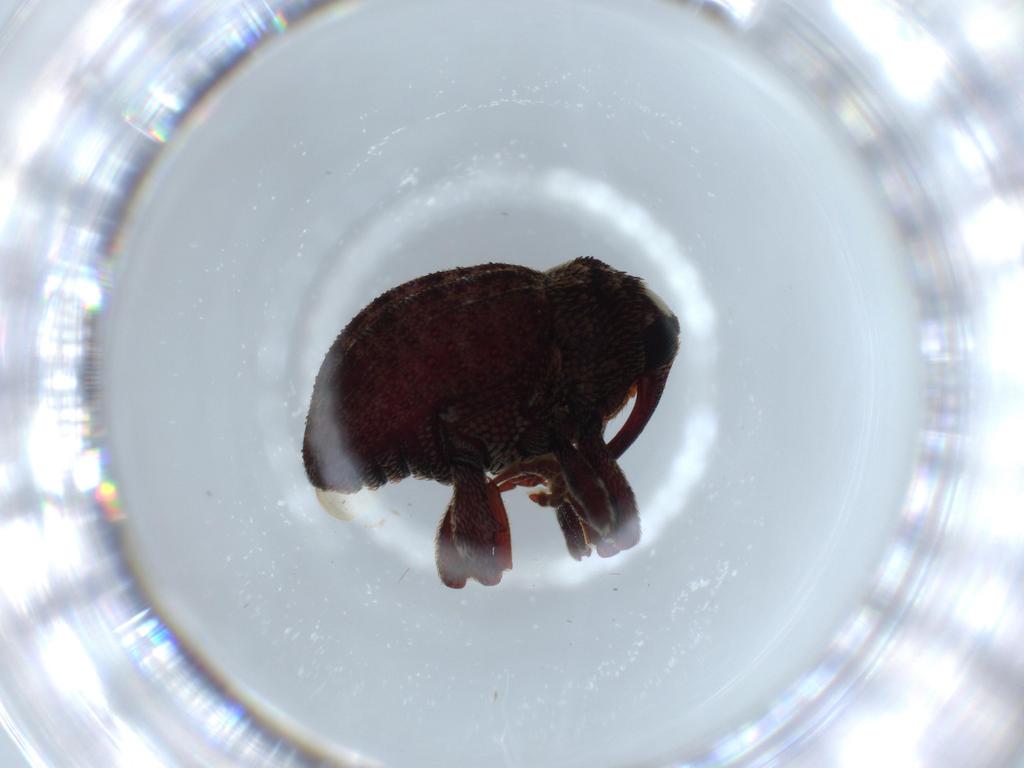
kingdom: Animalia
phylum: Arthropoda
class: Insecta
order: Coleoptera
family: Curculionidae
